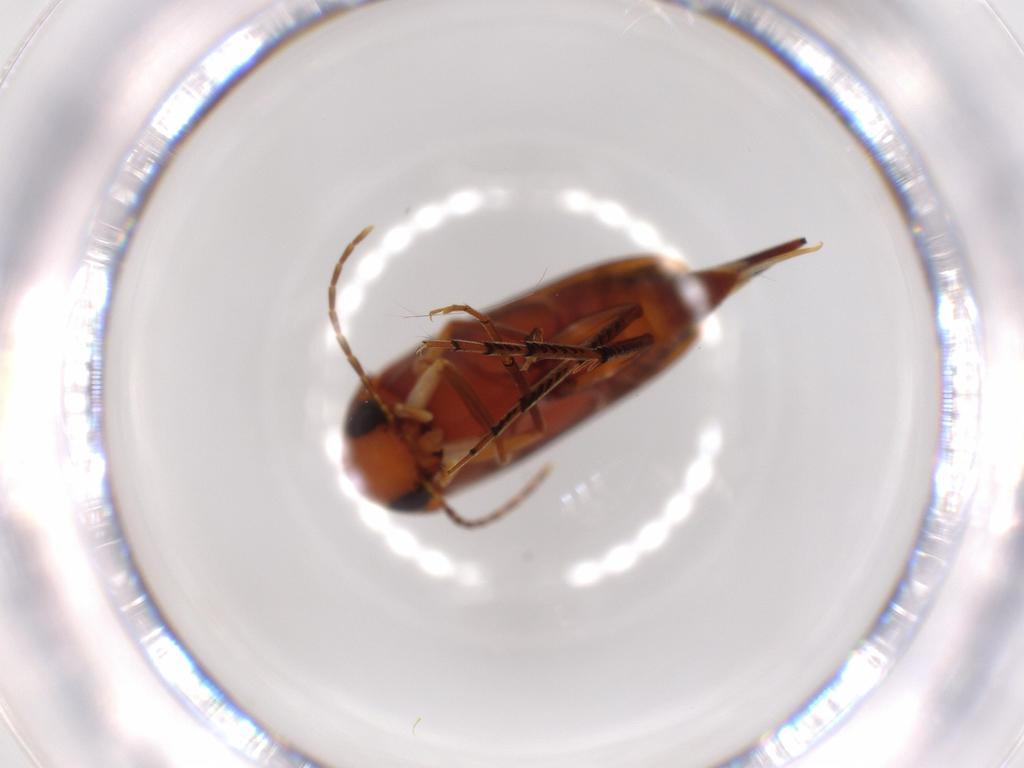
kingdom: Animalia
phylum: Arthropoda
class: Insecta
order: Coleoptera
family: Mordellidae
